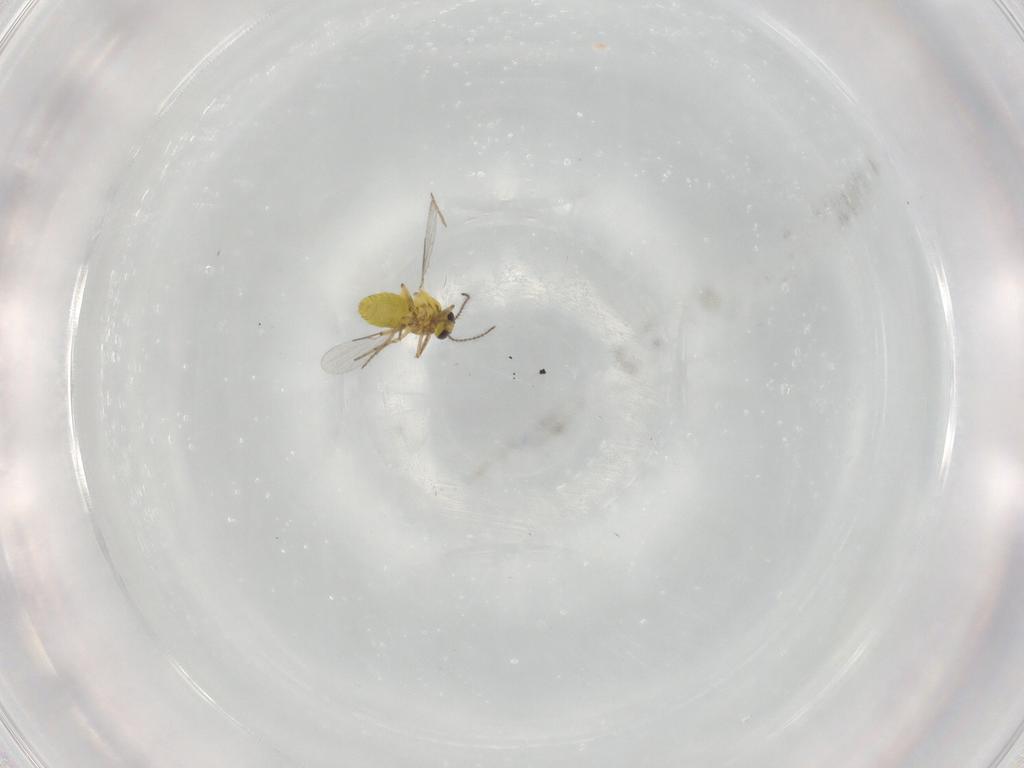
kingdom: Animalia
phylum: Arthropoda
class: Insecta
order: Diptera
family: Ceratopogonidae
